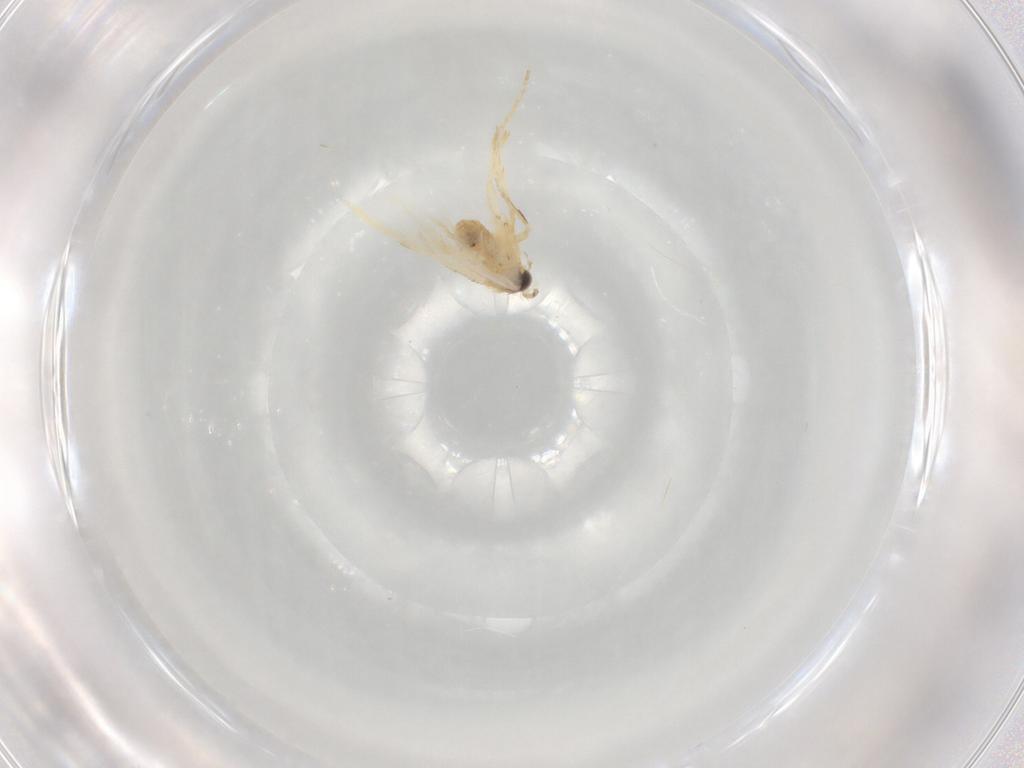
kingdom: Animalia
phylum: Arthropoda
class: Insecta
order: Lepidoptera
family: Nepticulidae
